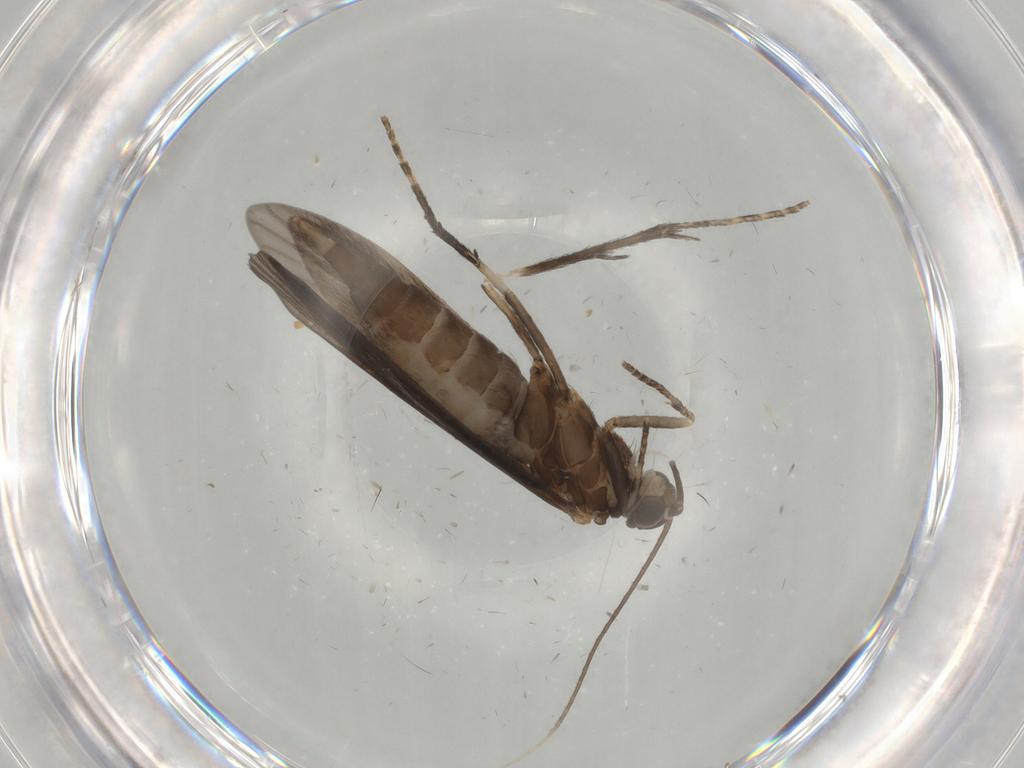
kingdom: Animalia
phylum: Arthropoda
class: Insecta
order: Trichoptera
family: Xiphocentronidae
